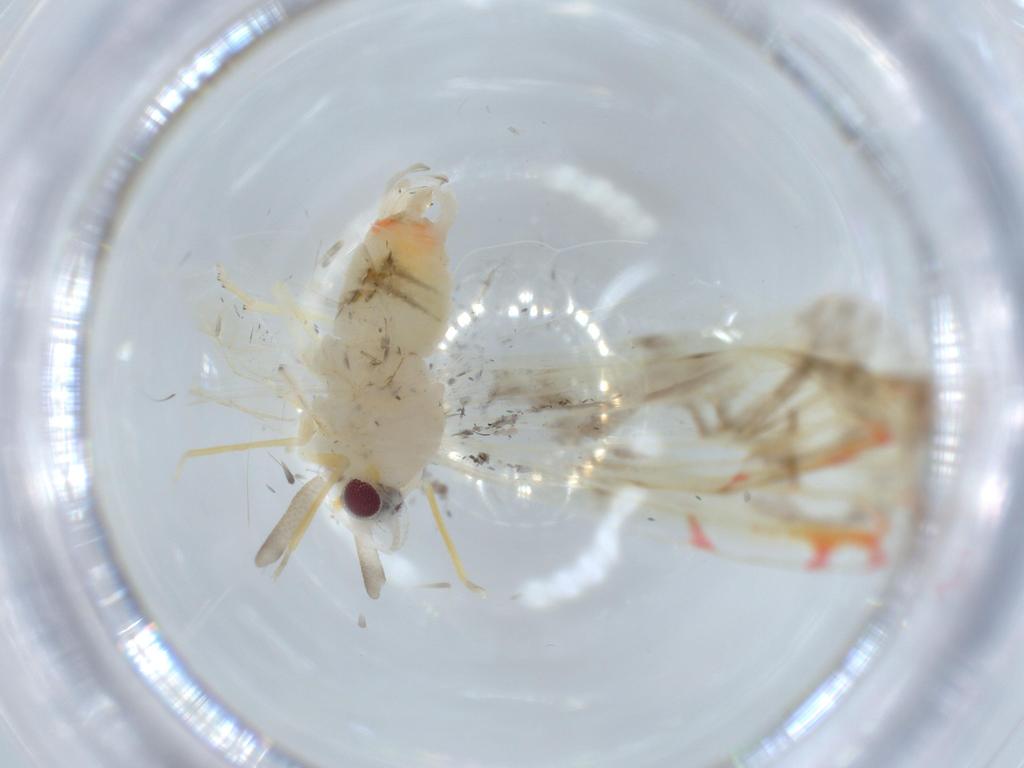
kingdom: Animalia
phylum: Arthropoda
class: Insecta
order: Hemiptera
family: Derbidae
